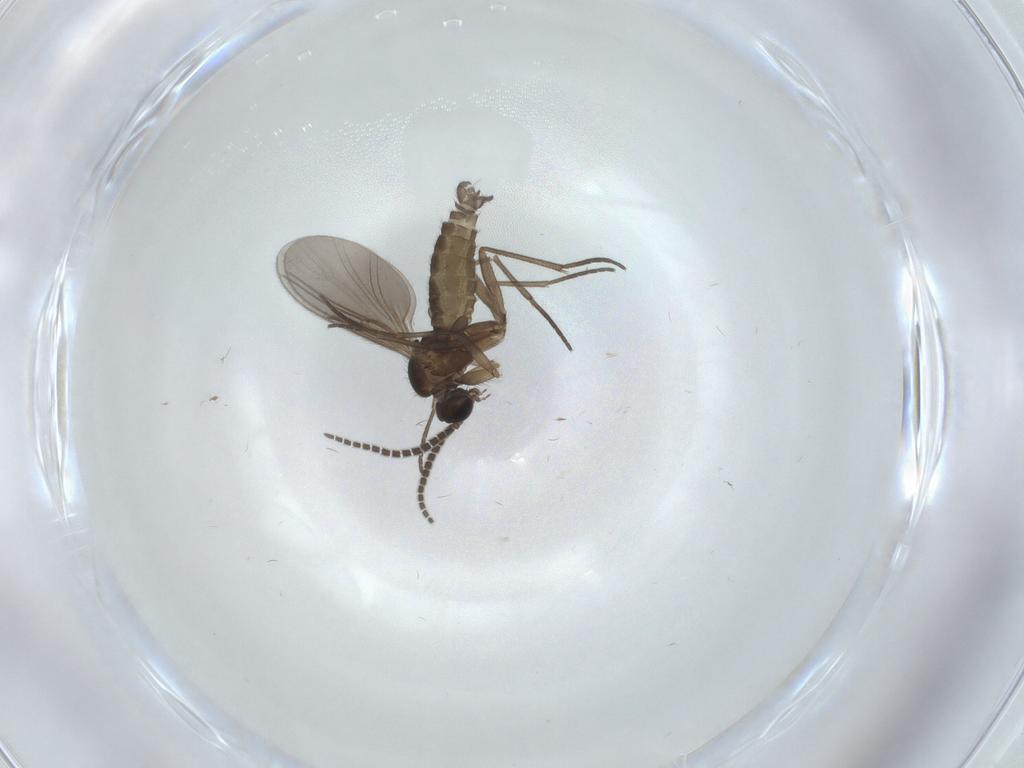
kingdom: Animalia
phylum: Arthropoda
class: Insecta
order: Diptera
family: Sciaridae
